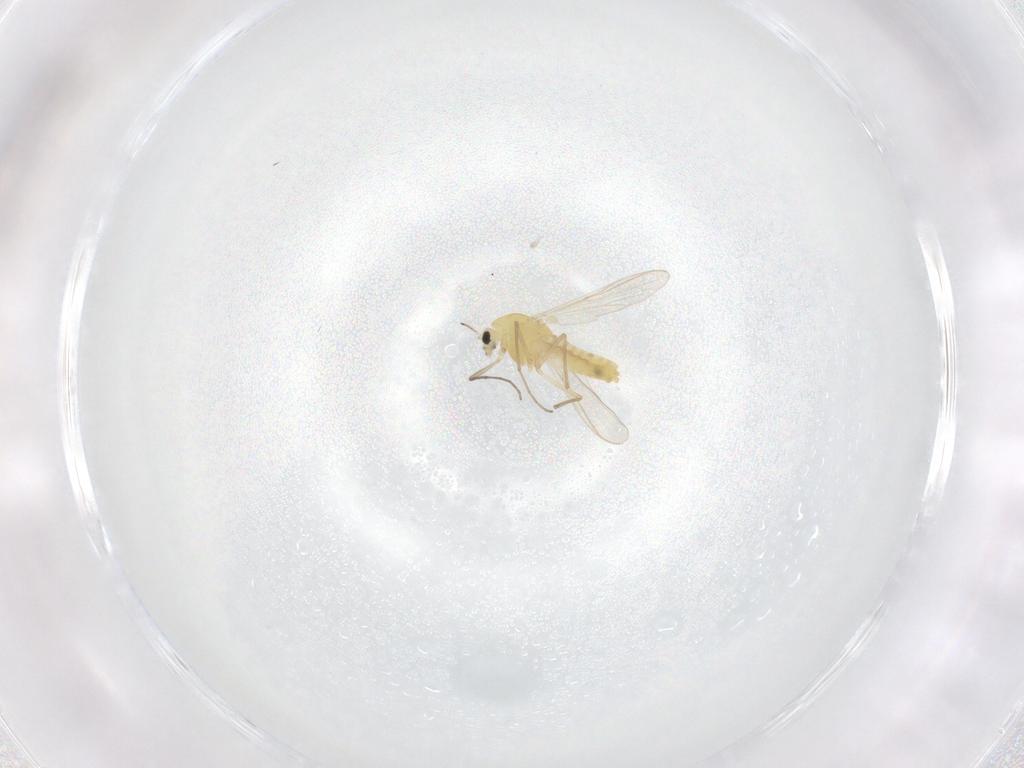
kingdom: Animalia
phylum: Arthropoda
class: Insecta
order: Diptera
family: Chironomidae
